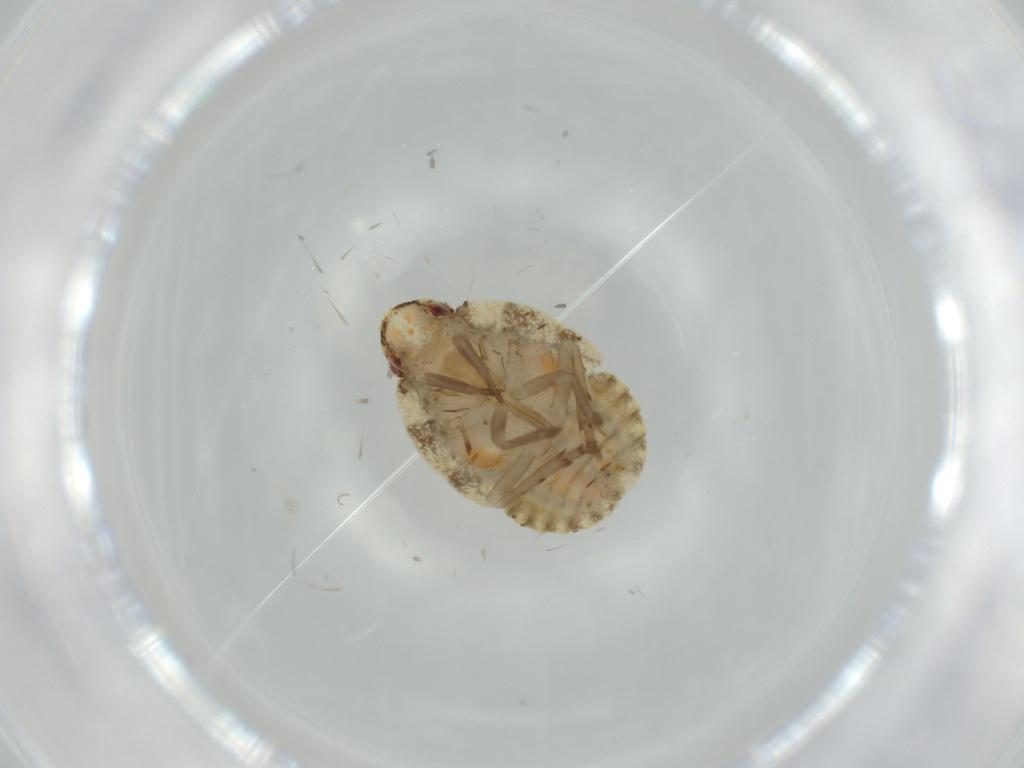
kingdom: Animalia
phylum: Arthropoda
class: Insecta
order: Hemiptera
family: Flatidae
